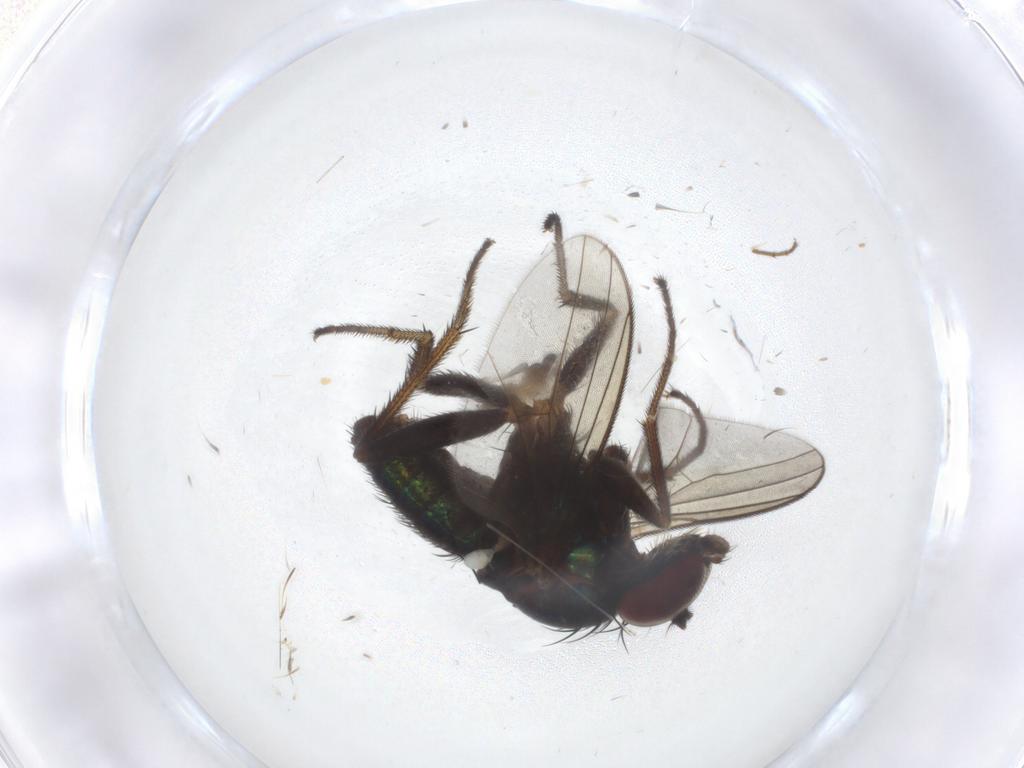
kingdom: Animalia
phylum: Arthropoda
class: Insecta
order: Diptera
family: Dolichopodidae
